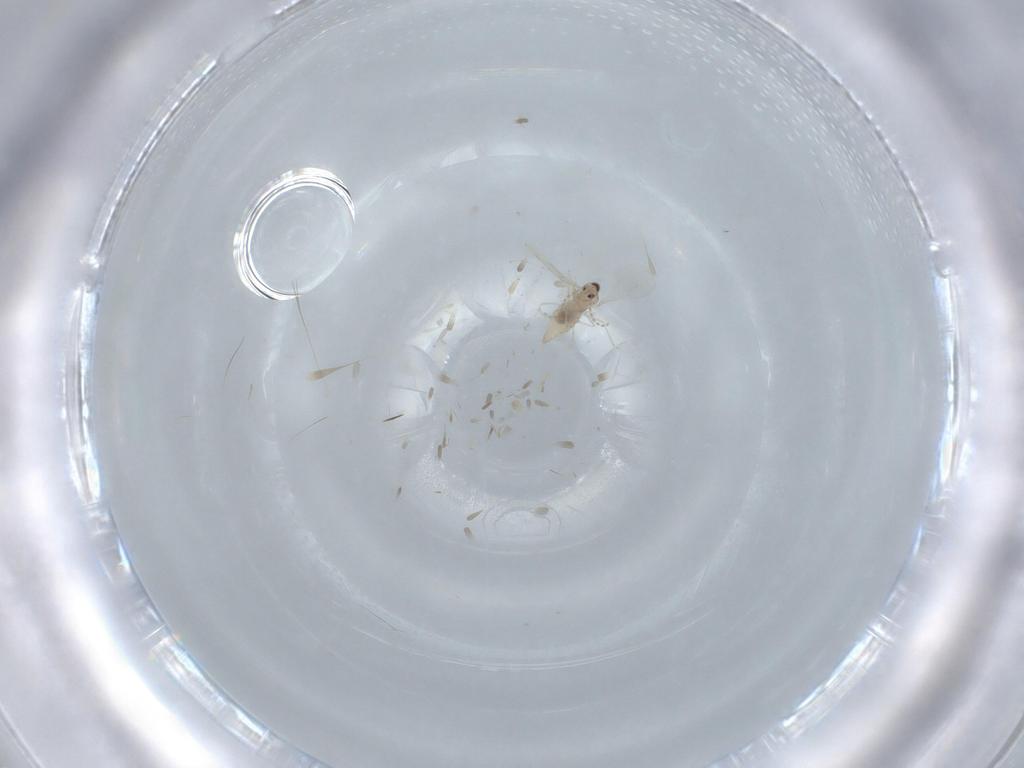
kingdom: Animalia
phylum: Arthropoda
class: Insecta
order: Diptera
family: Cecidomyiidae
